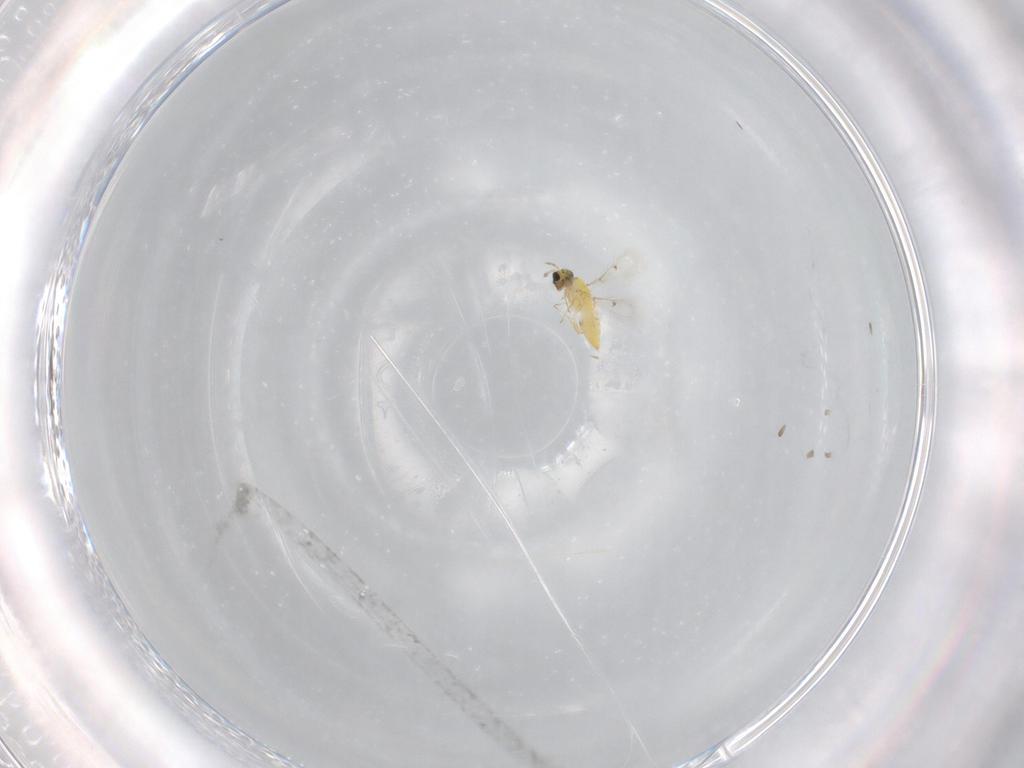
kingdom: Animalia
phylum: Arthropoda
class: Insecta
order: Hymenoptera
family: Trichogrammatidae
